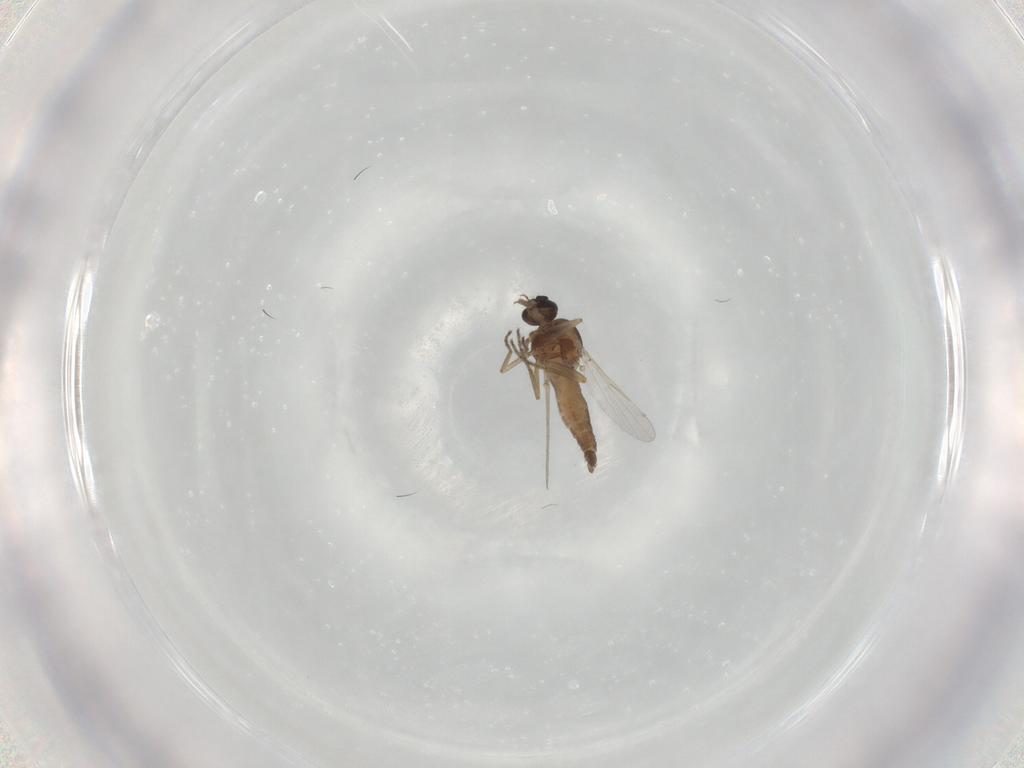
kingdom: Animalia
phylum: Arthropoda
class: Insecta
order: Diptera
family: Ceratopogonidae
